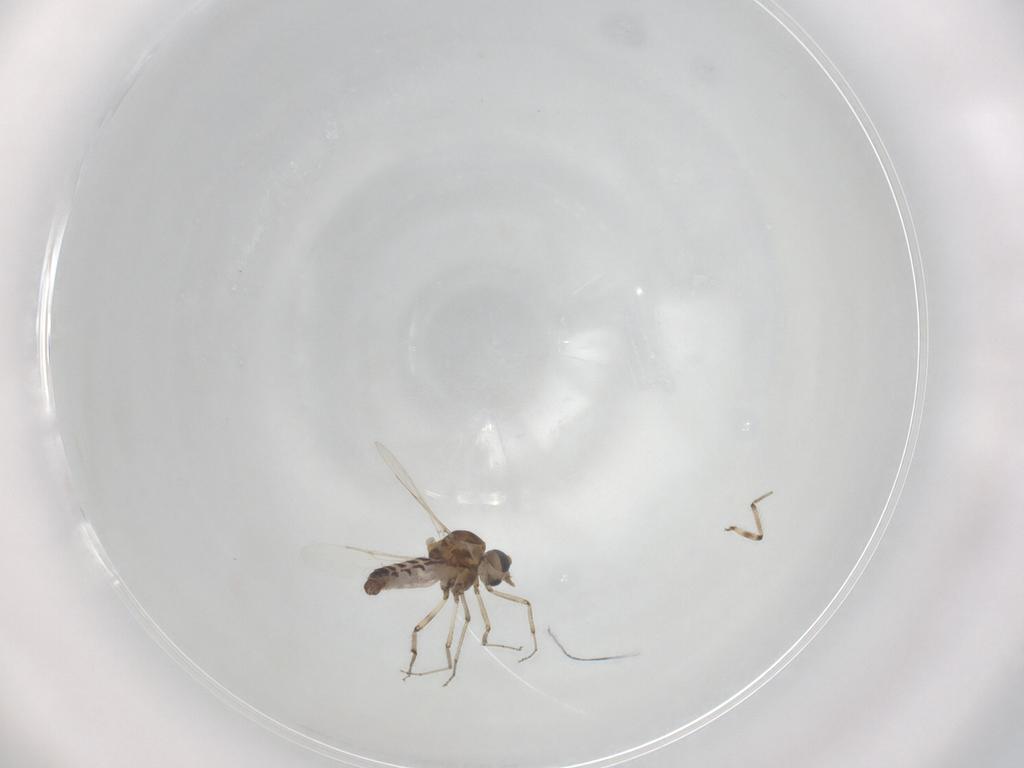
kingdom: Animalia
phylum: Arthropoda
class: Insecta
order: Diptera
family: Ceratopogonidae
